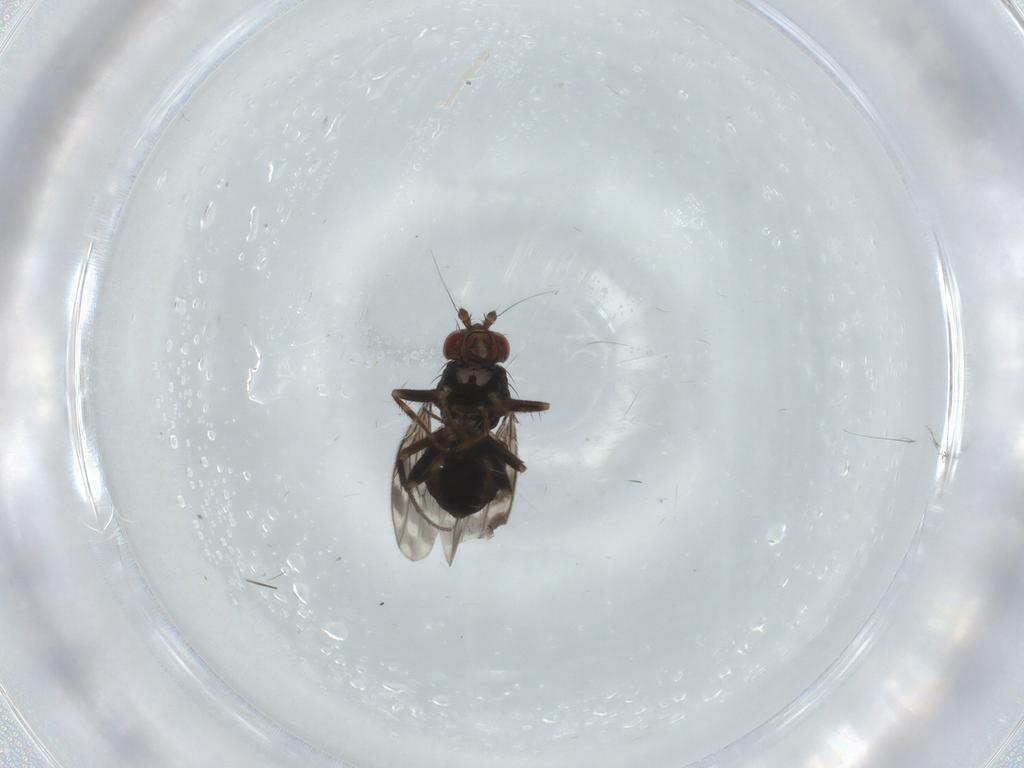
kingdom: Animalia
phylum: Arthropoda
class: Insecta
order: Diptera
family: Sphaeroceridae
